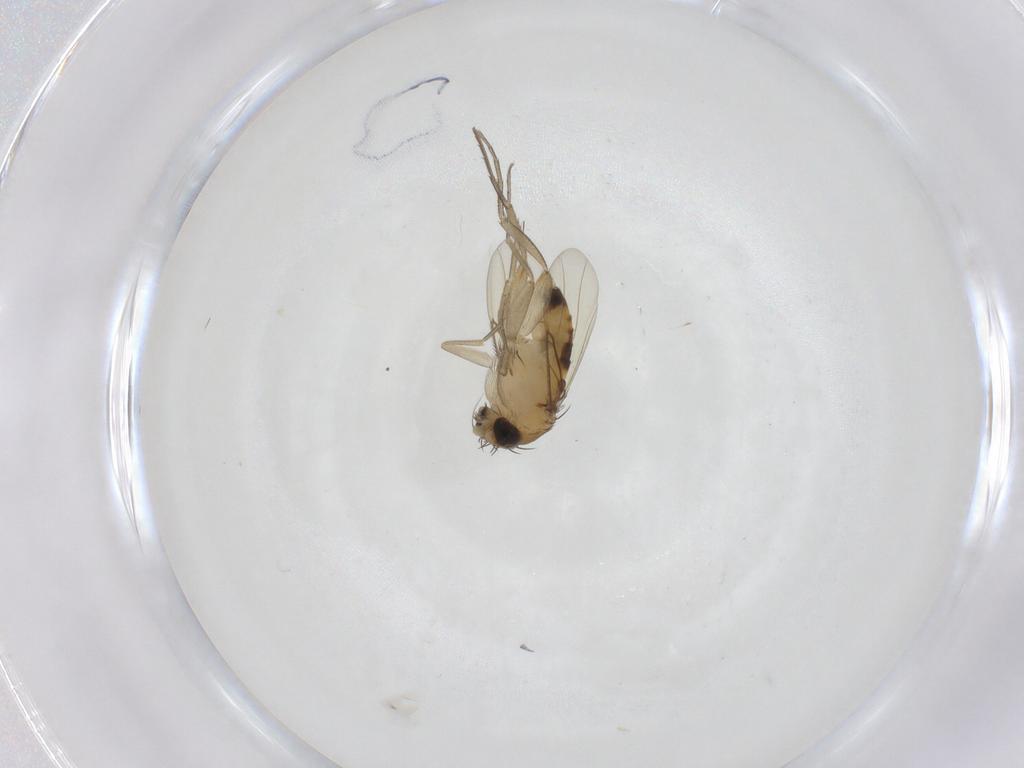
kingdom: Animalia
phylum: Arthropoda
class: Insecta
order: Diptera
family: Phoridae
